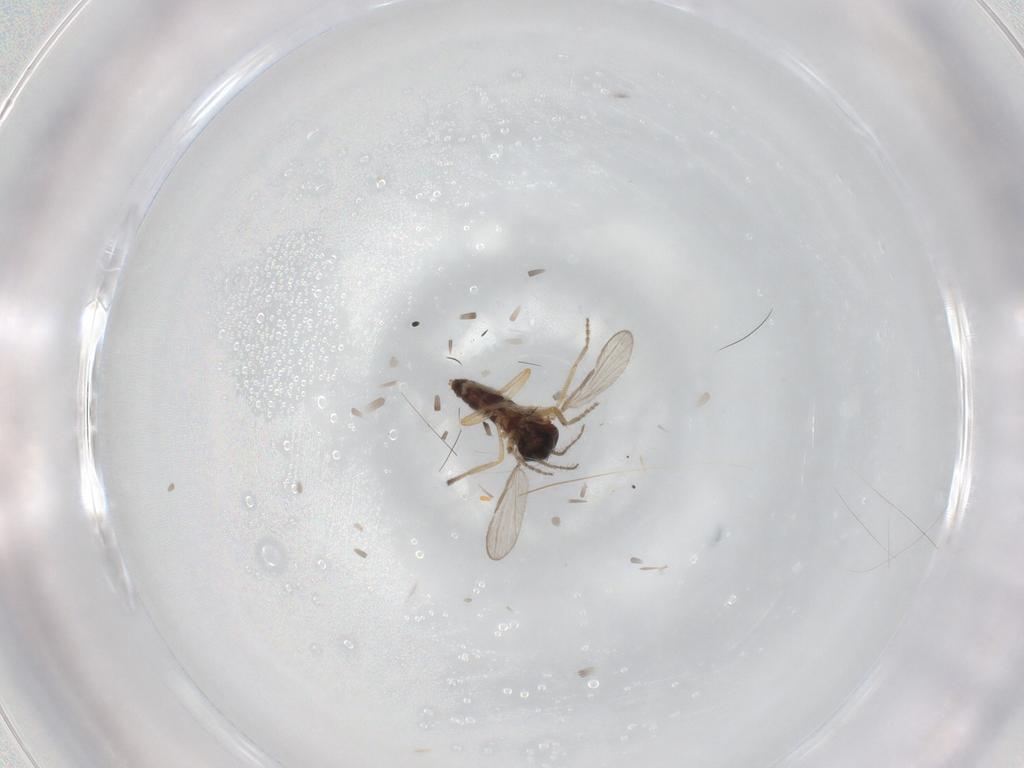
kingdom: Animalia
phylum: Arthropoda
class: Insecta
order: Diptera
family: Ceratopogonidae
